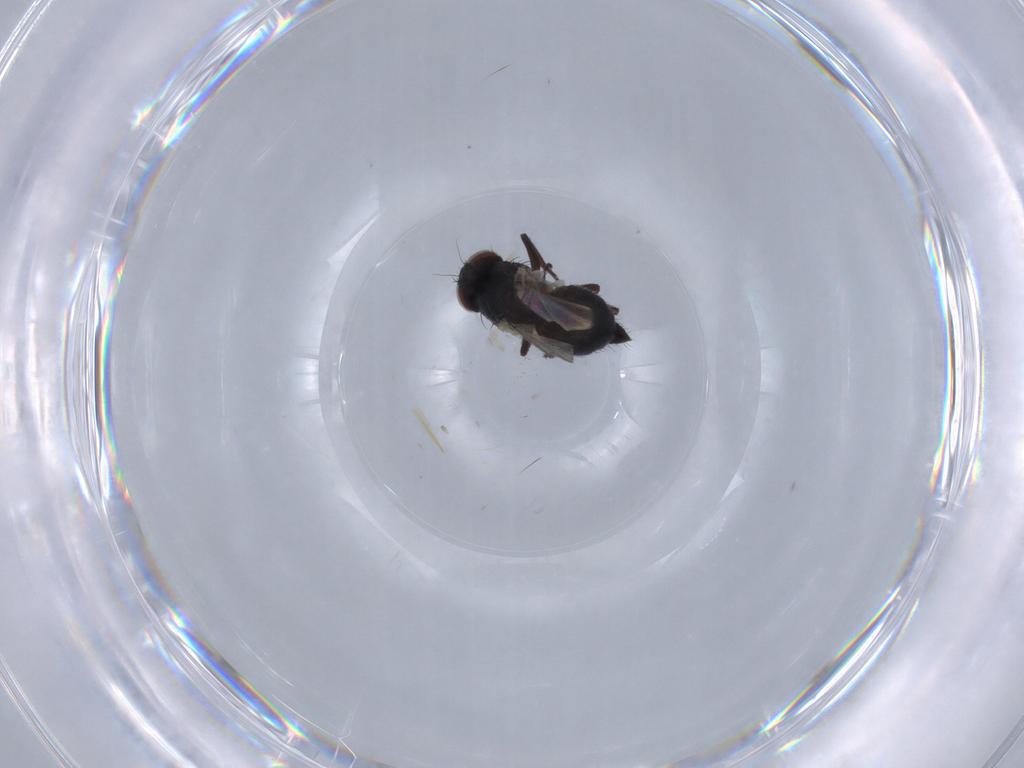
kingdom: Animalia
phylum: Arthropoda
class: Insecta
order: Diptera
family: Agromyzidae
